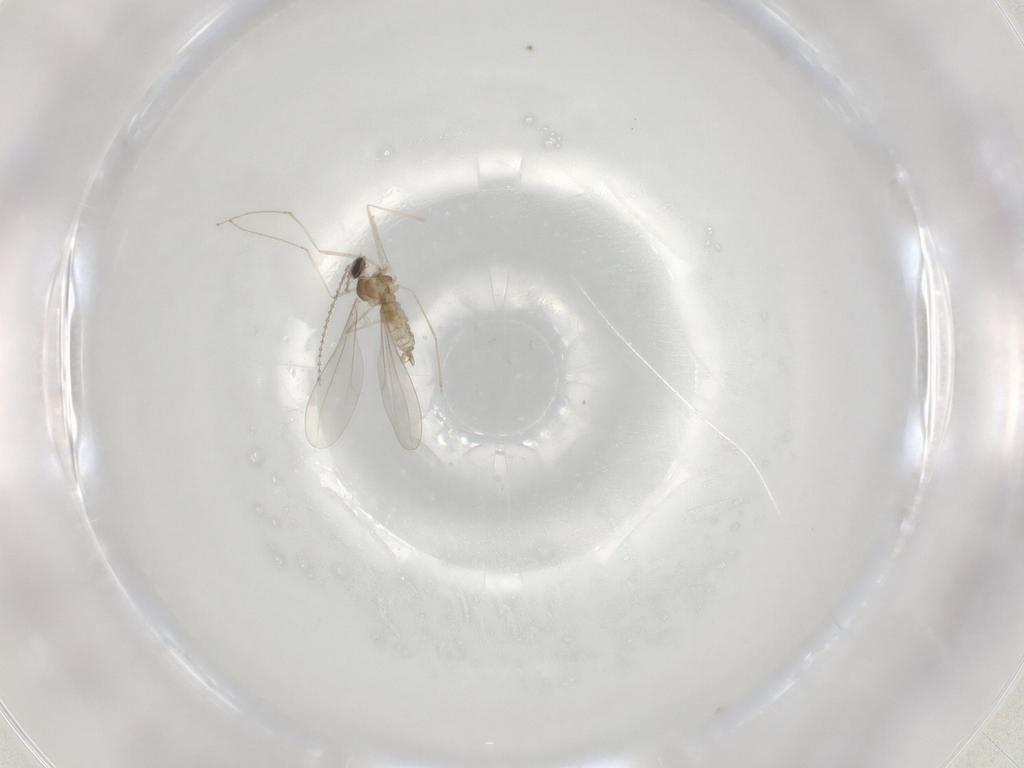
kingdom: Animalia
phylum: Arthropoda
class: Insecta
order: Diptera
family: Cecidomyiidae
